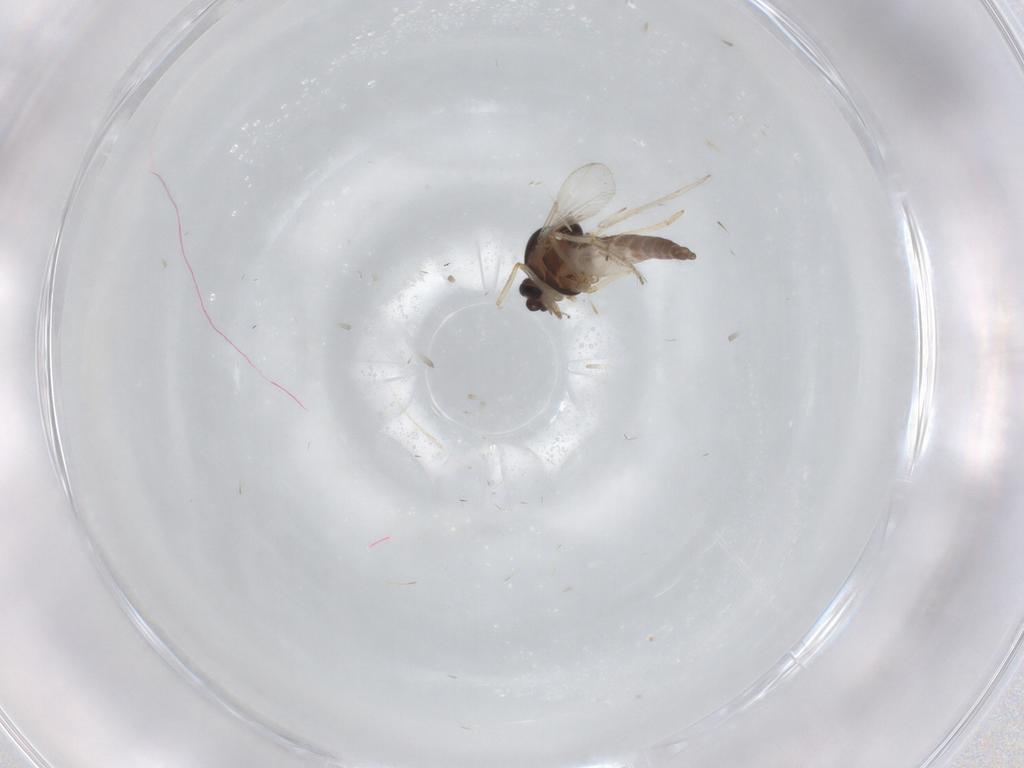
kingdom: Animalia
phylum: Arthropoda
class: Insecta
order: Diptera
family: Ceratopogonidae
